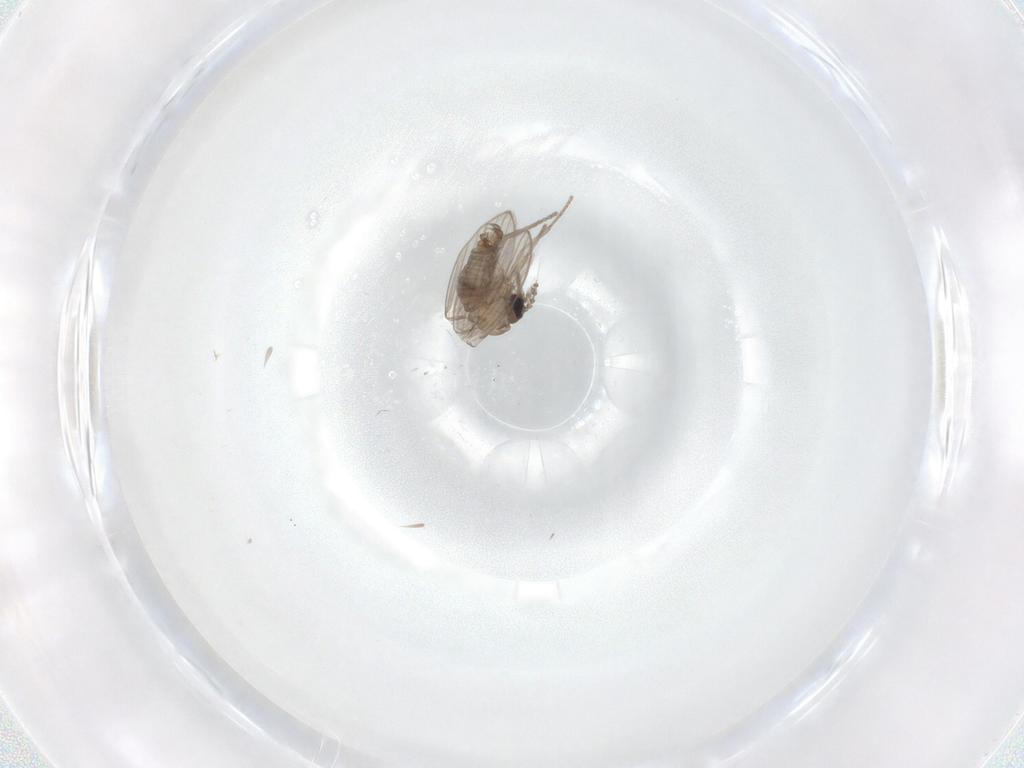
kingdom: Animalia
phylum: Arthropoda
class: Insecta
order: Diptera
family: Psychodidae
